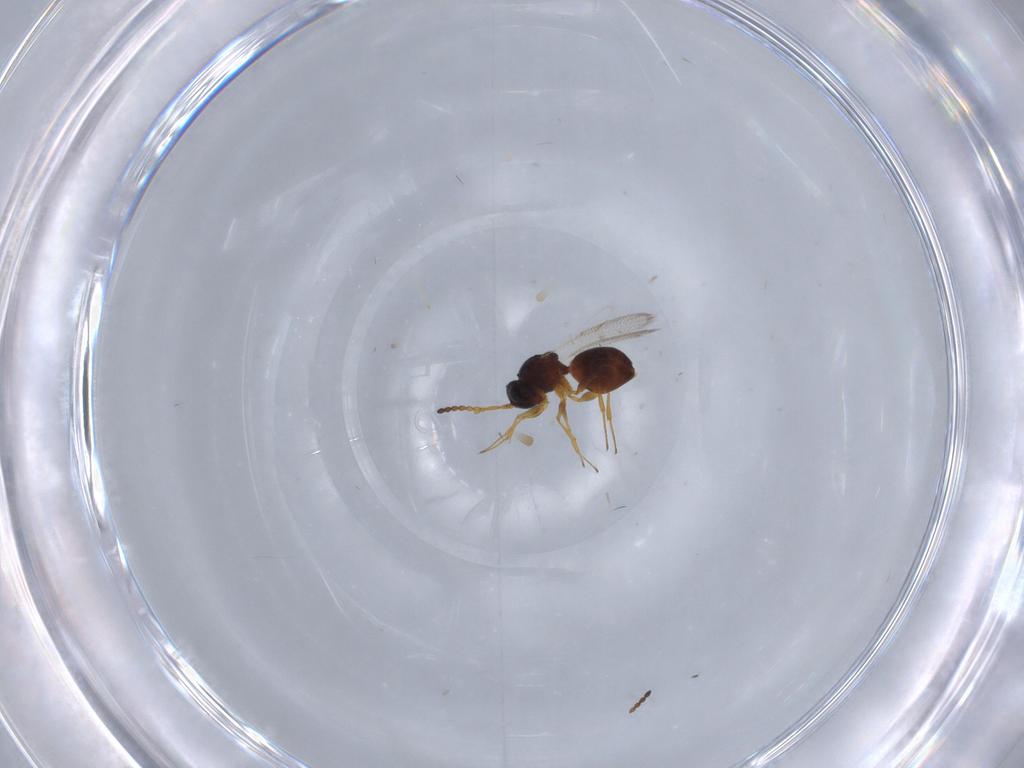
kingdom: Animalia
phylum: Arthropoda
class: Insecta
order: Hymenoptera
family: Figitidae
